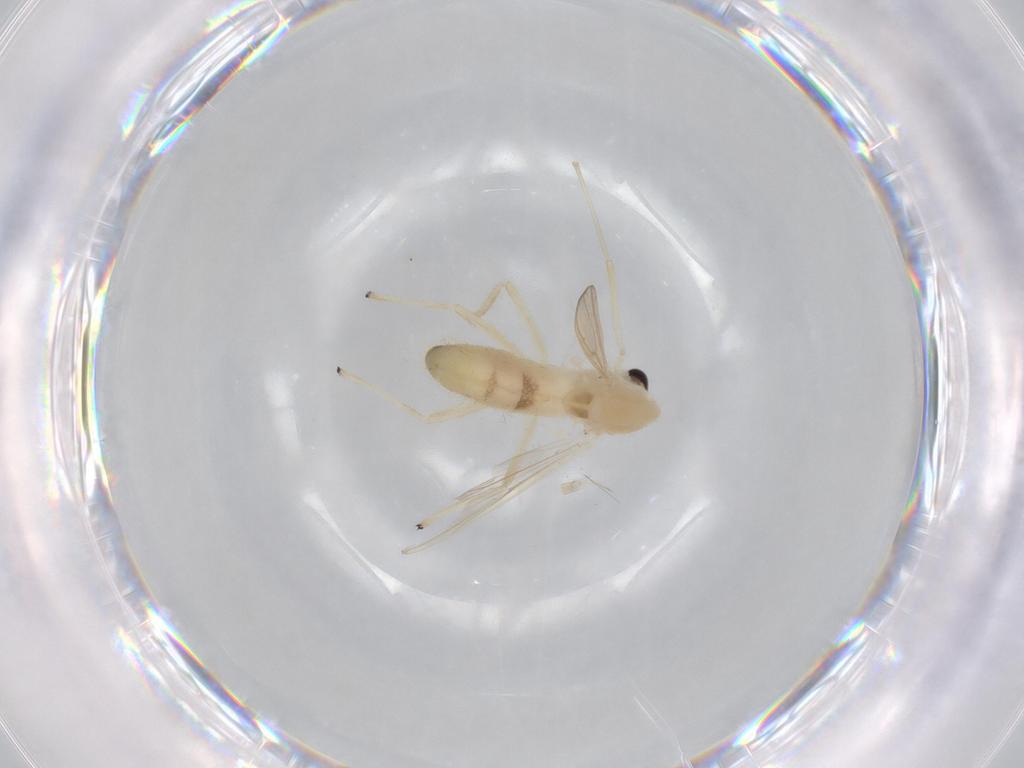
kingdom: Animalia
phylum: Arthropoda
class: Insecta
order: Diptera
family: Chironomidae
